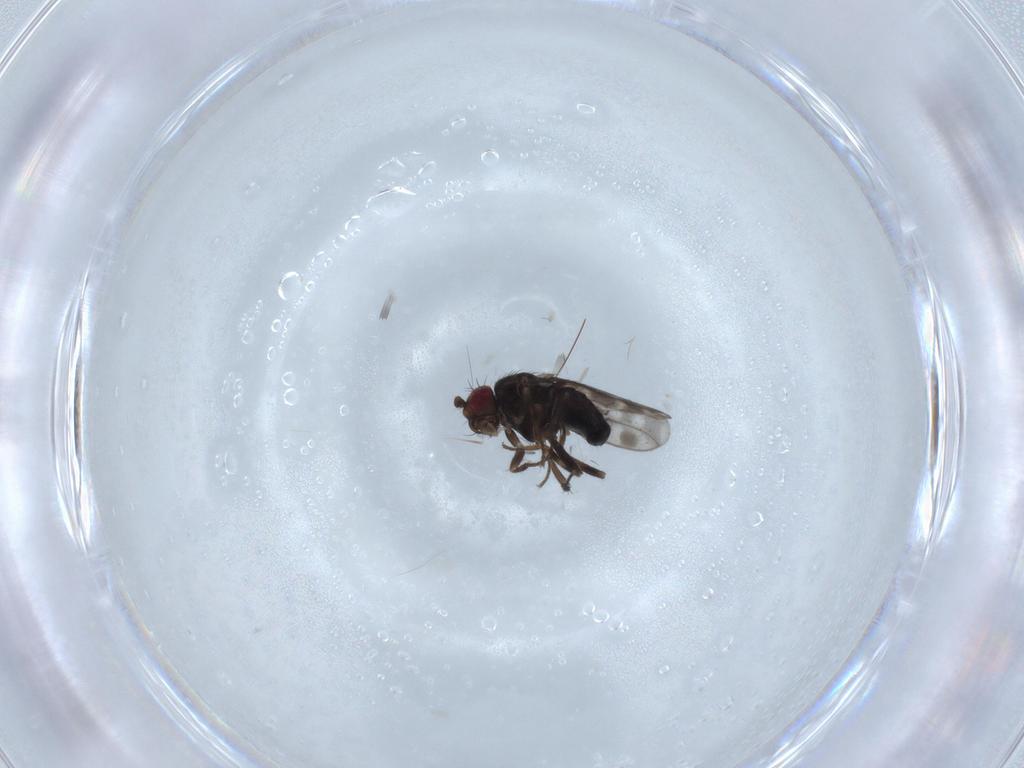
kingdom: Animalia
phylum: Arthropoda
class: Insecta
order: Diptera
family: Sphaeroceridae
